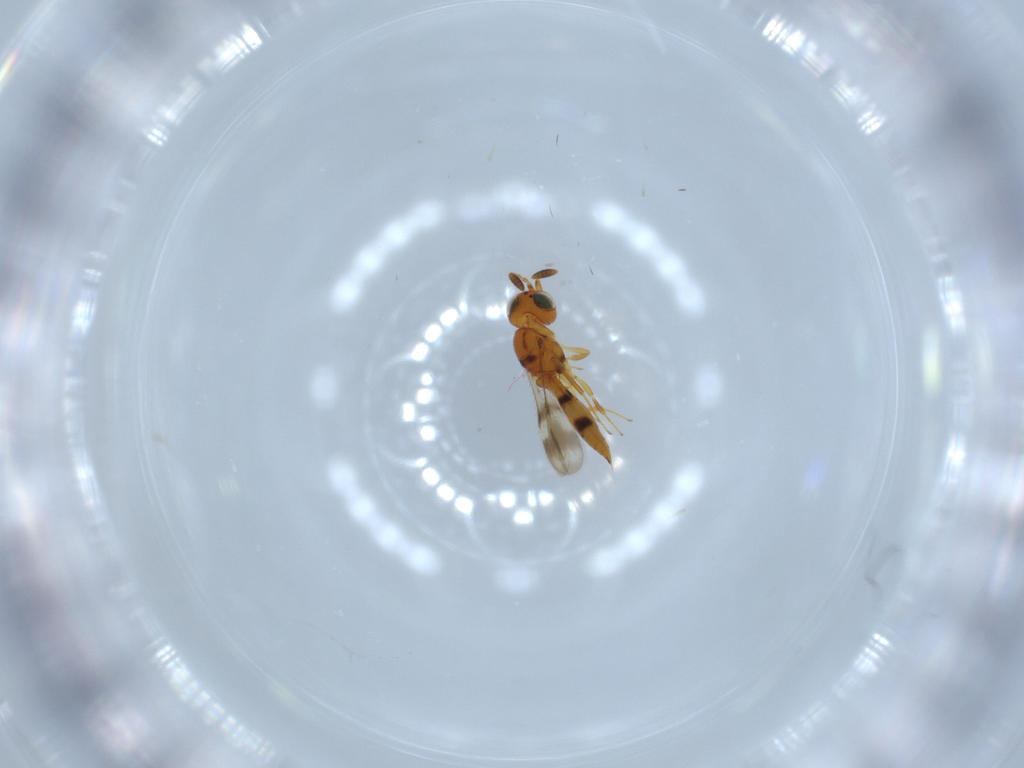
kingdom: Animalia
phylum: Arthropoda
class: Insecta
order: Hymenoptera
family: Scelionidae
